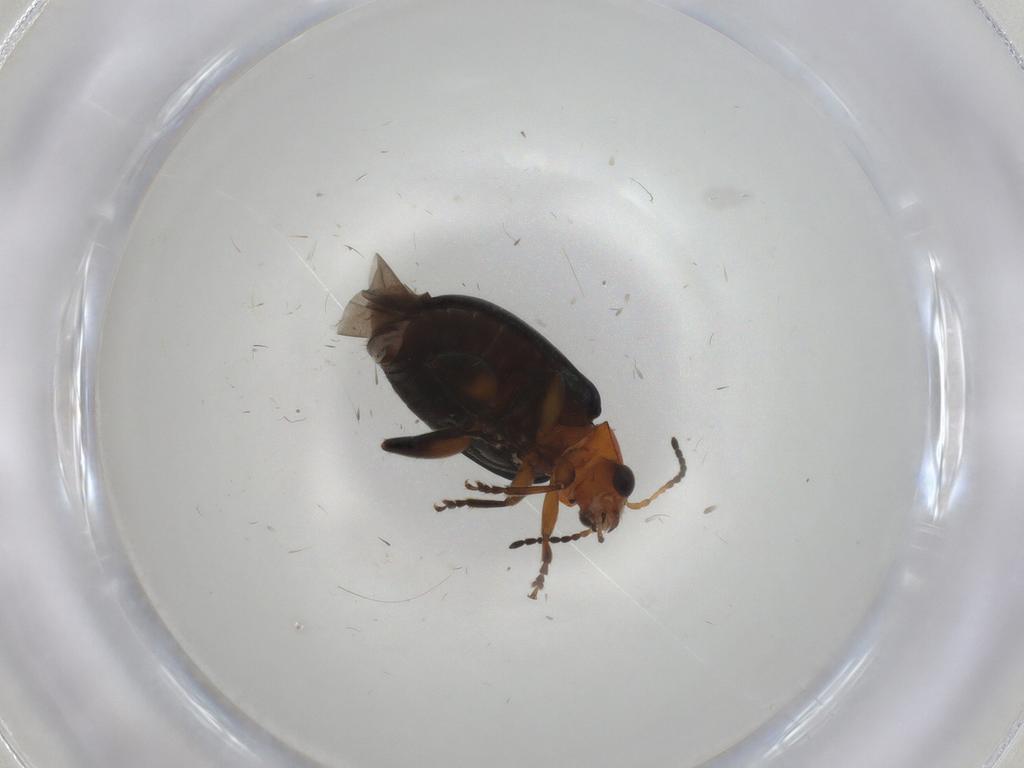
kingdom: Animalia
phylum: Arthropoda
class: Insecta
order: Coleoptera
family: Chrysomelidae
